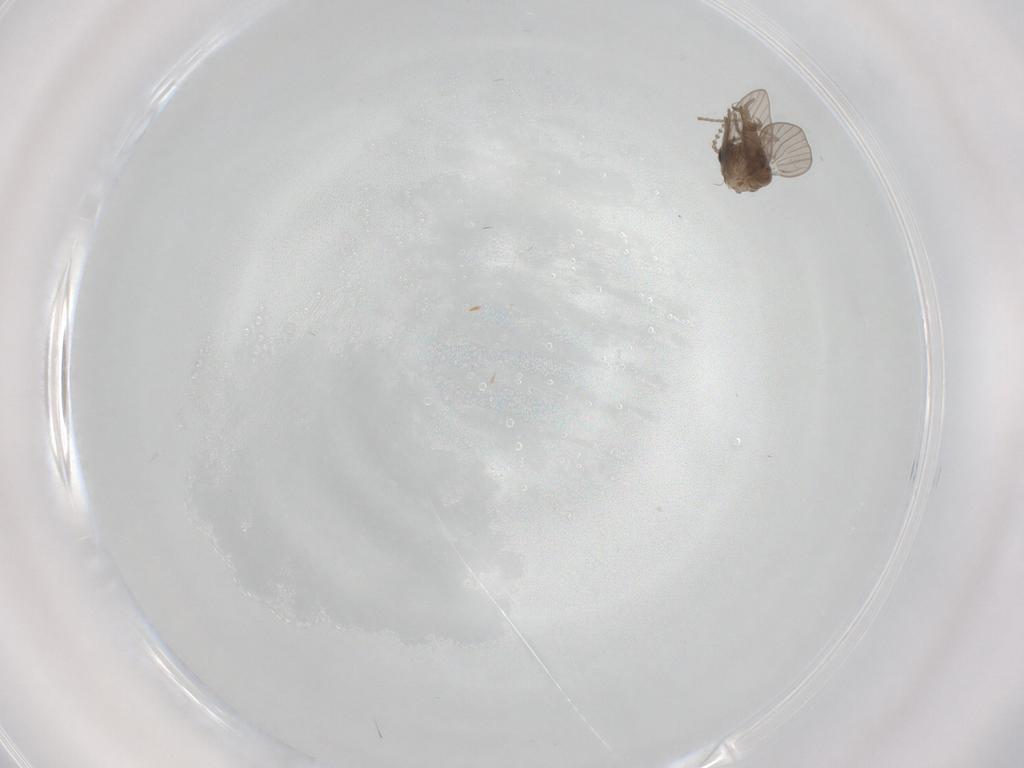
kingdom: Animalia
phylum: Arthropoda
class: Insecta
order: Diptera
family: Psychodidae
